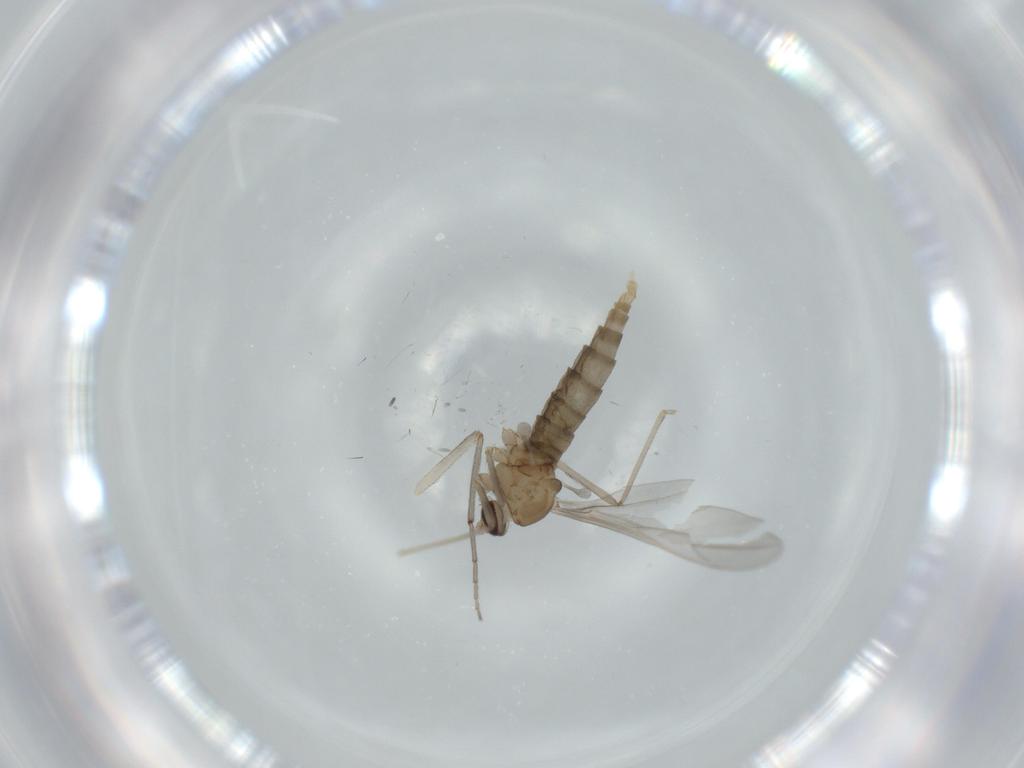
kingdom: Animalia
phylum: Arthropoda
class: Insecta
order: Diptera
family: Cecidomyiidae
